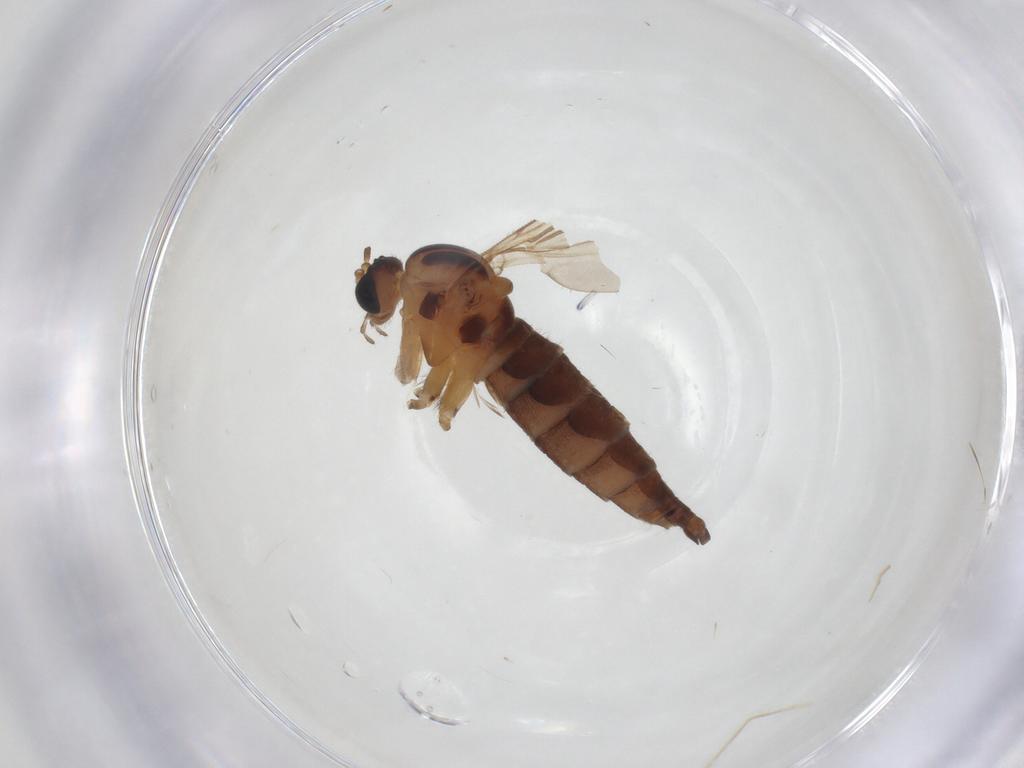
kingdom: Animalia
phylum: Arthropoda
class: Insecta
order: Diptera
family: Sciaridae
